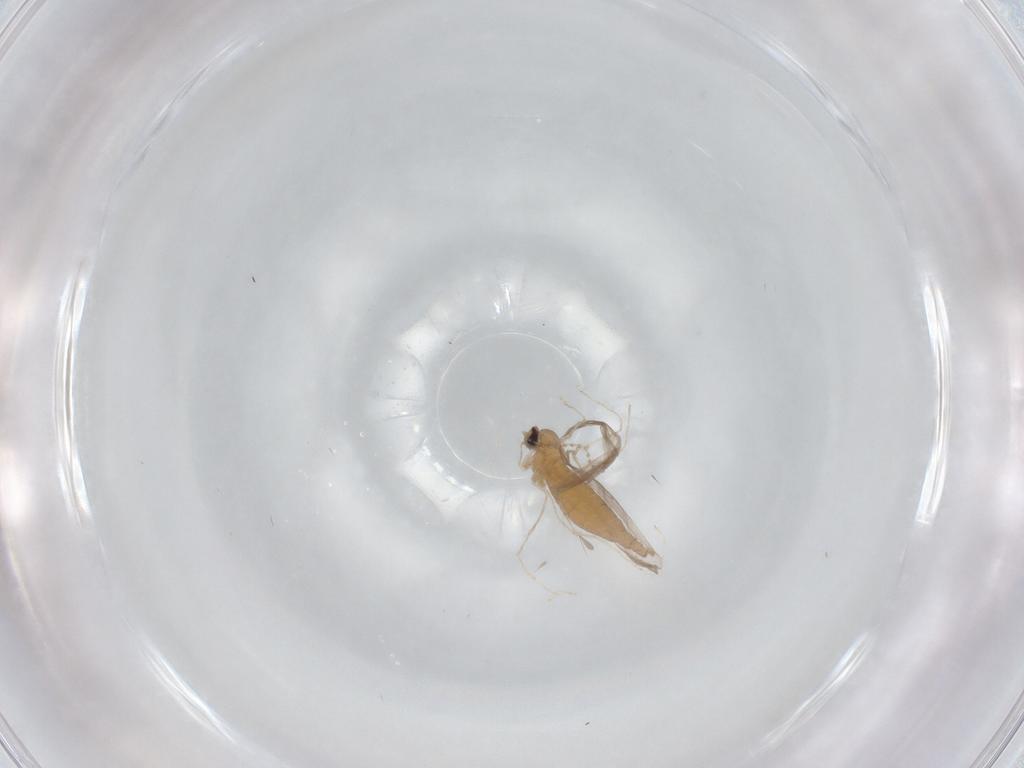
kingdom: Animalia
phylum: Arthropoda
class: Insecta
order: Diptera
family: Cecidomyiidae
